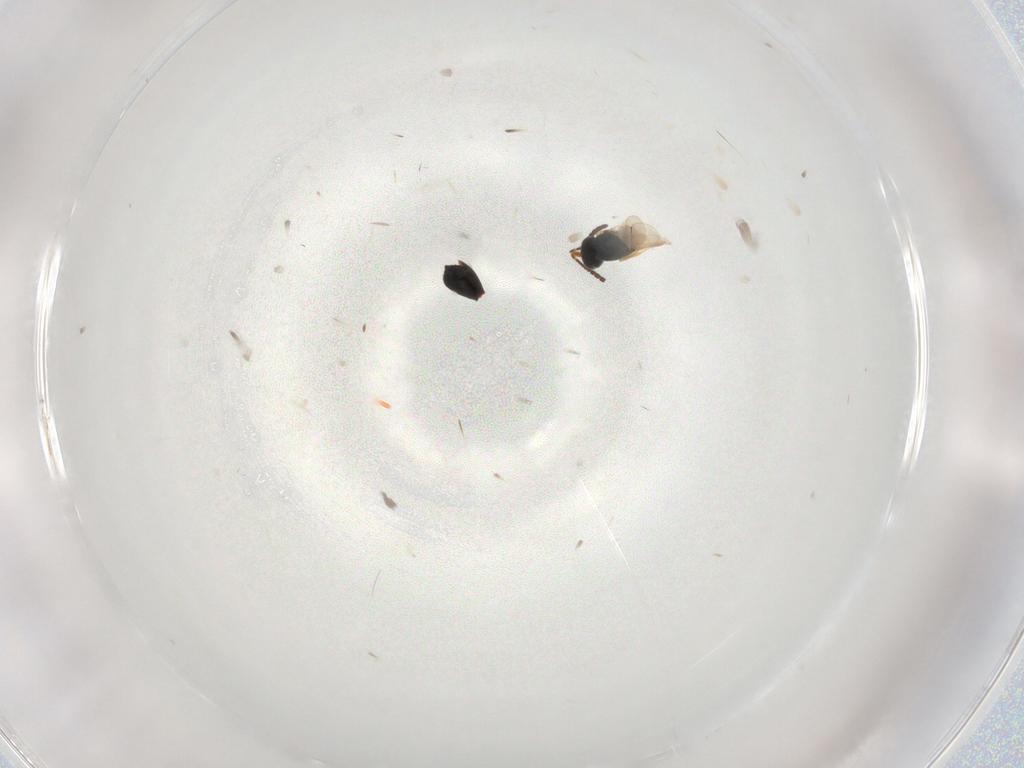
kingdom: Animalia
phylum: Arthropoda
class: Insecta
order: Hymenoptera
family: Scelionidae
